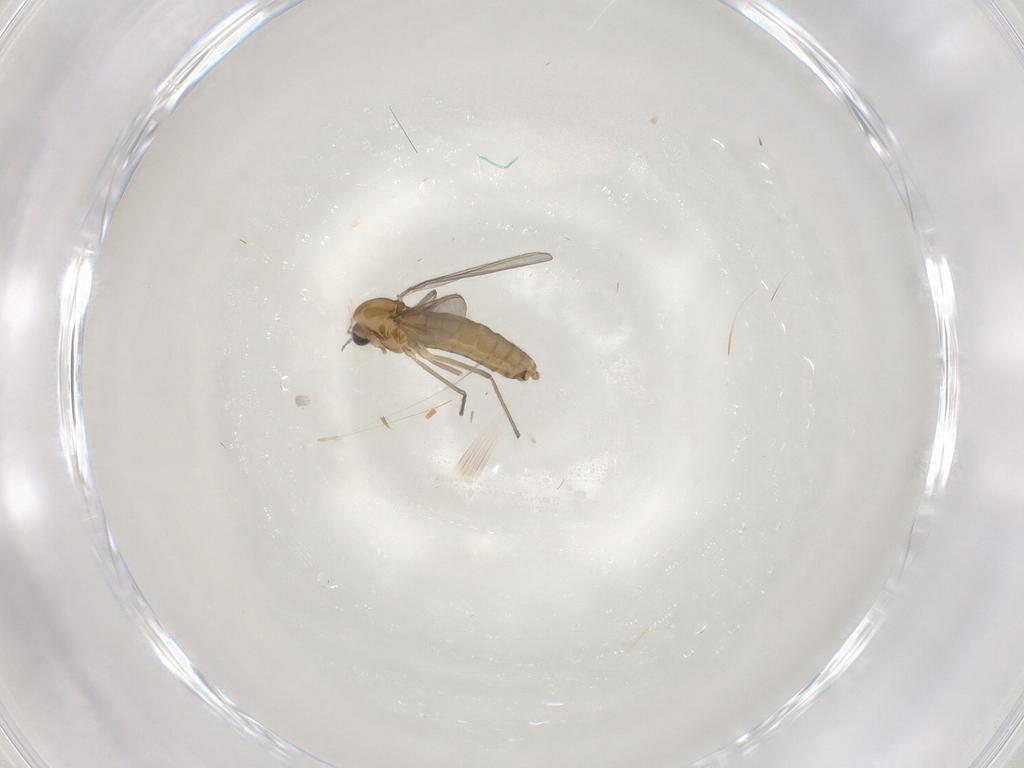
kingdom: Animalia
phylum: Arthropoda
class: Insecta
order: Diptera
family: Chironomidae
